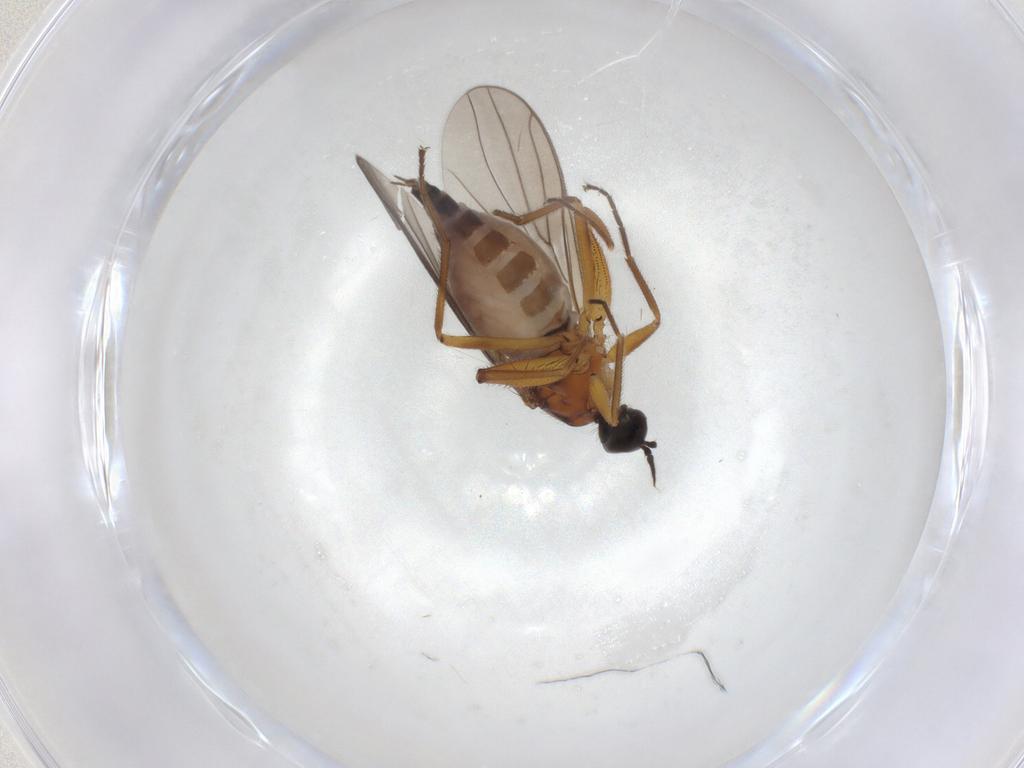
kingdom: Animalia
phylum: Arthropoda
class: Insecta
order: Diptera
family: Hybotidae
